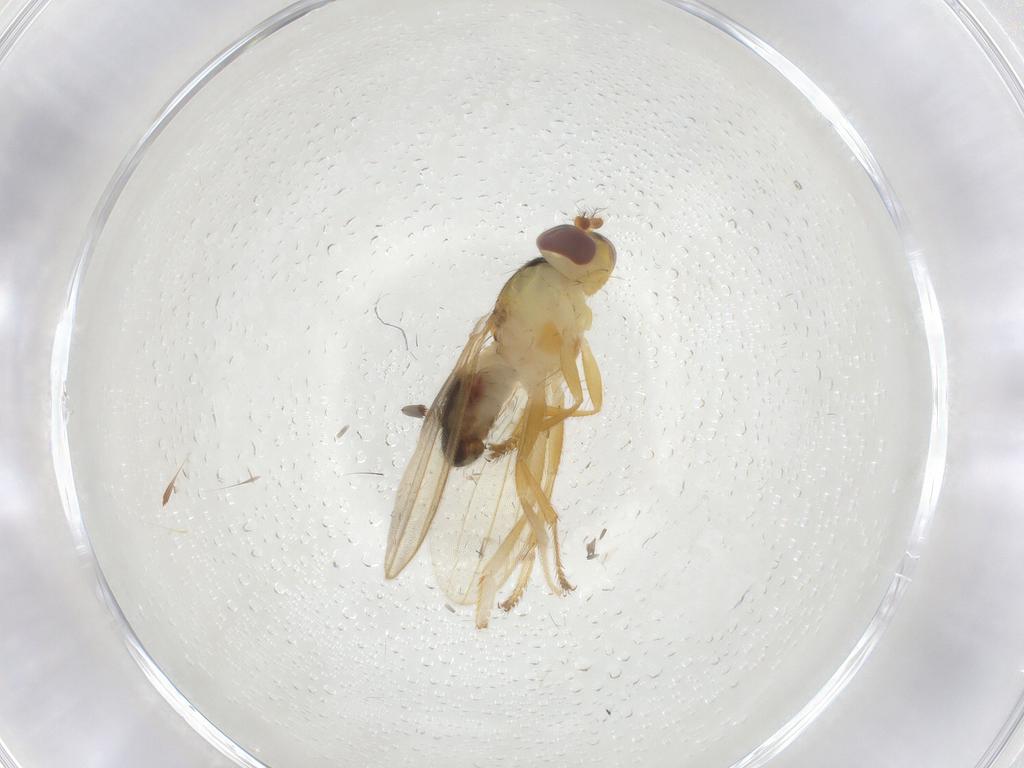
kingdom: Animalia
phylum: Arthropoda
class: Insecta
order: Diptera
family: Periscelididae
